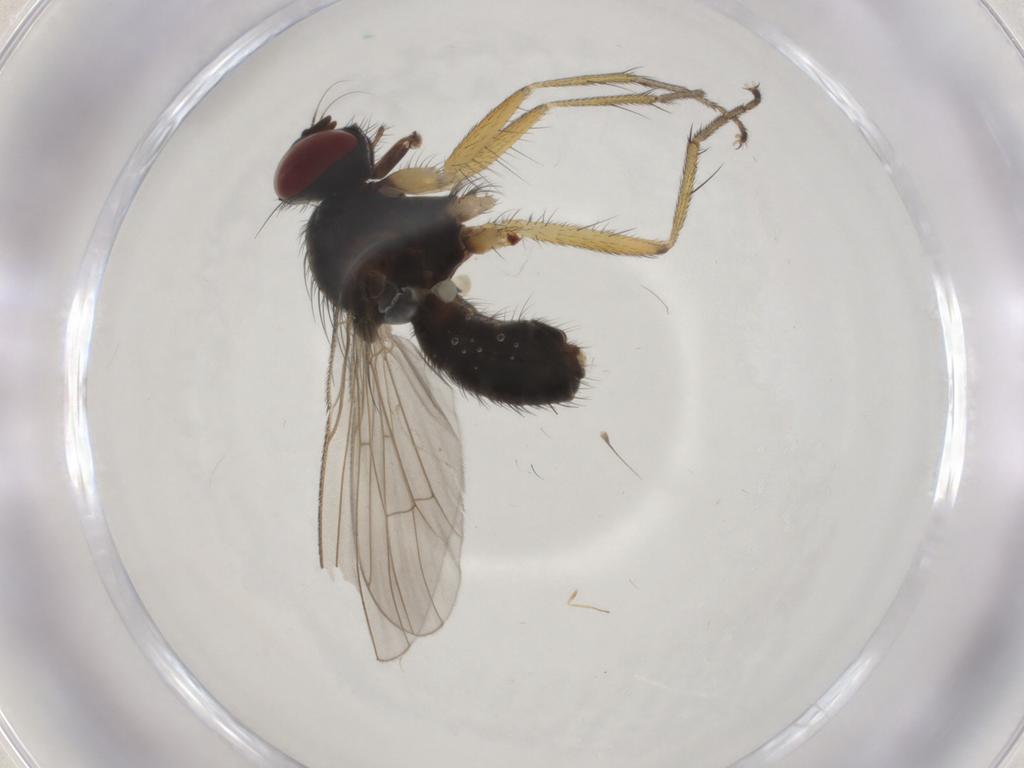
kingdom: Animalia
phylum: Arthropoda
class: Insecta
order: Diptera
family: Muscidae
